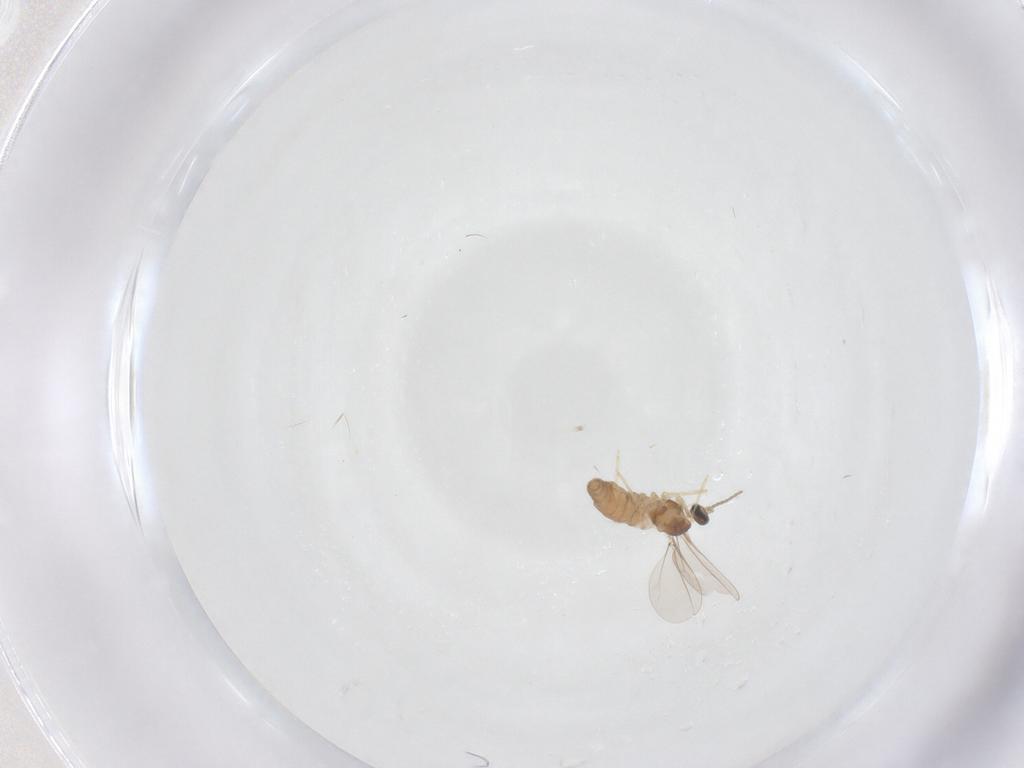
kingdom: Animalia
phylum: Arthropoda
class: Insecta
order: Diptera
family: Cecidomyiidae
